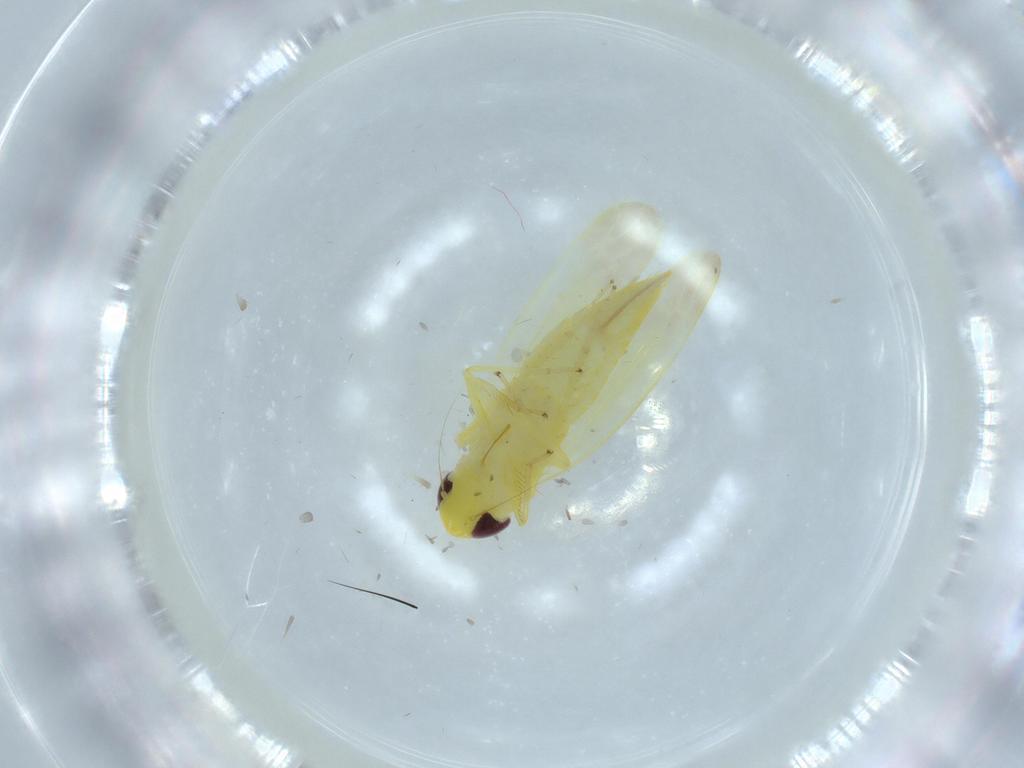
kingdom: Animalia
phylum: Arthropoda
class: Insecta
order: Hemiptera
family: Cicadellidae
